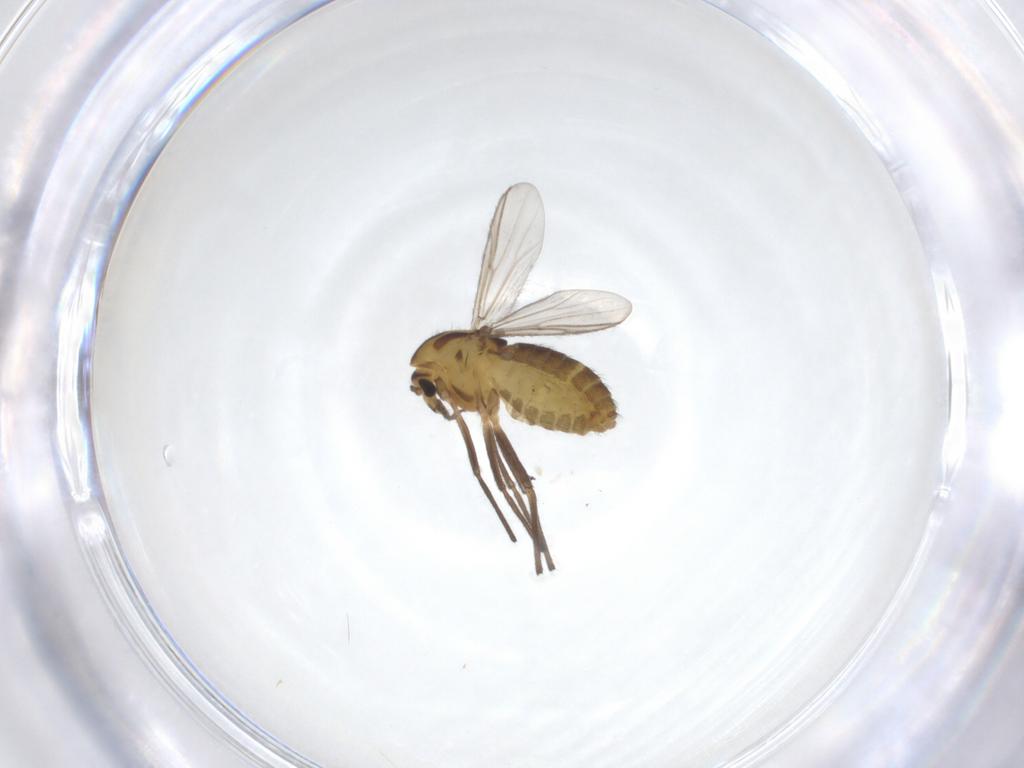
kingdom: Animalia
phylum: Arthropoda
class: Insecta
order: Diptera
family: Chironomidae
